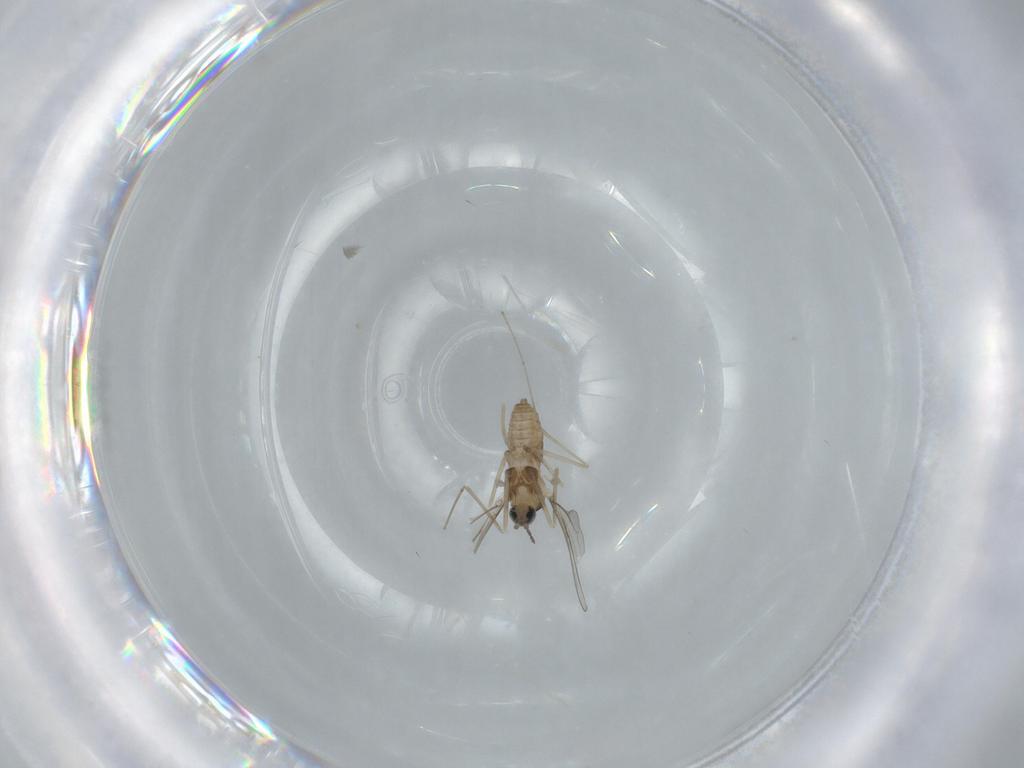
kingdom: Animalia
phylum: Arthropoda
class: Insecta
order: Diptera
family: Cecidomyiidae
